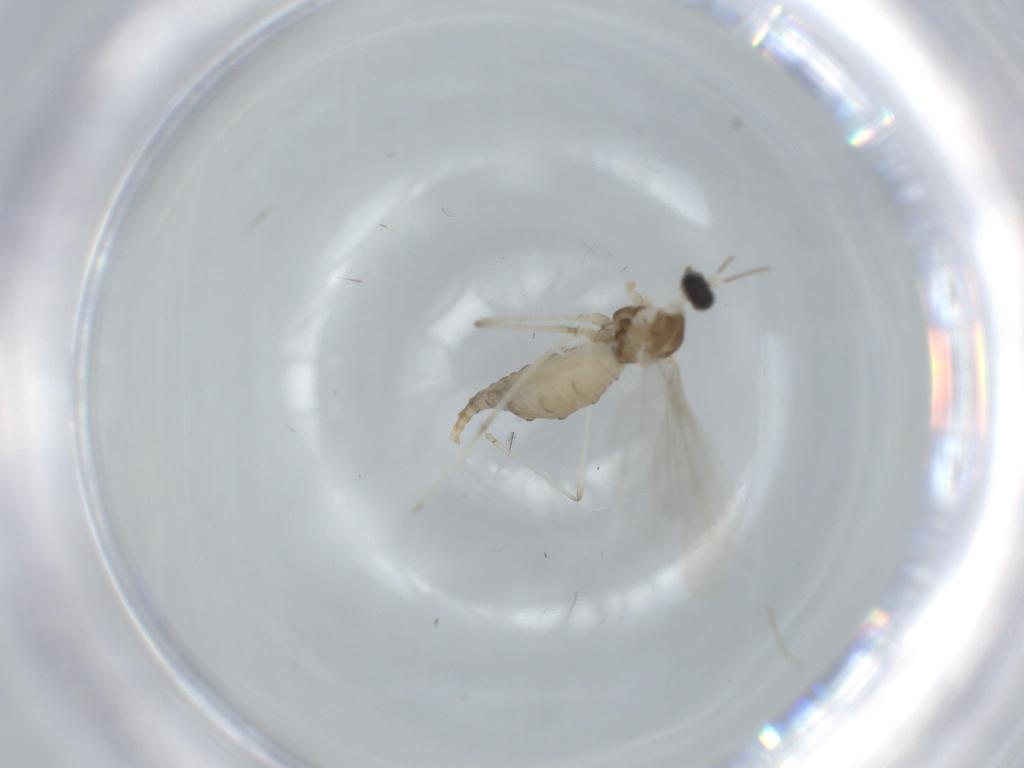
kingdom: Animalia
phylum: Arthropoda
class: Insecta
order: Diptera
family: Cecidomyiidae
